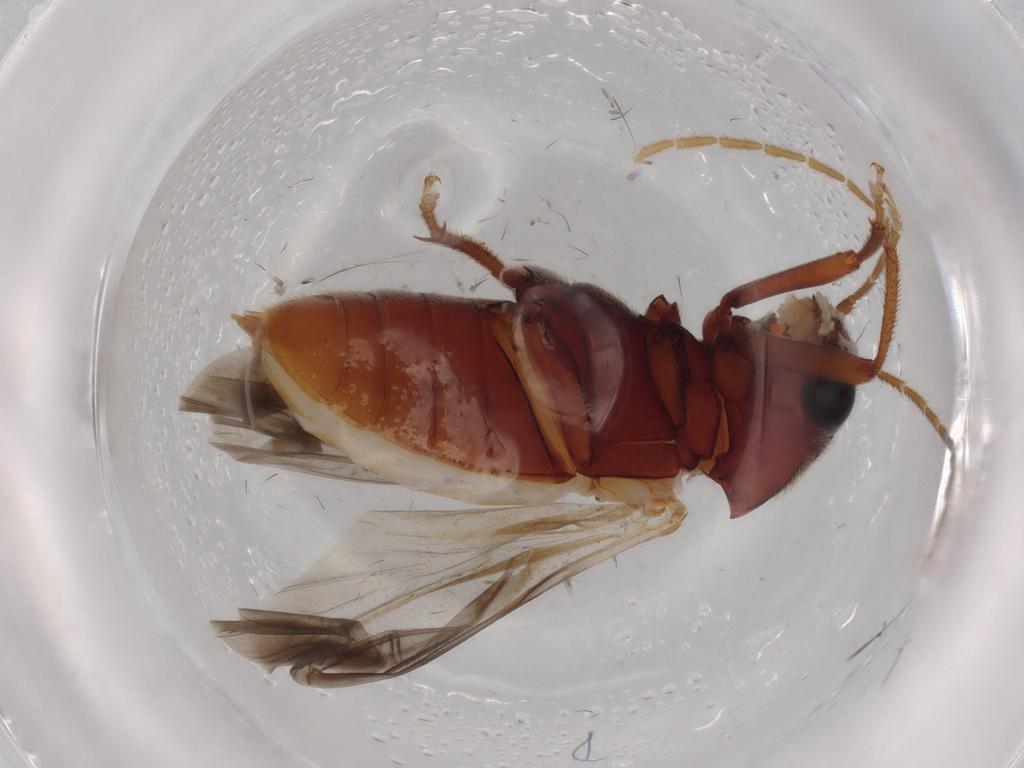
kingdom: Animalia
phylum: Arthropoda
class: Insecta
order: Coleoptera
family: Ptilodactylidae
